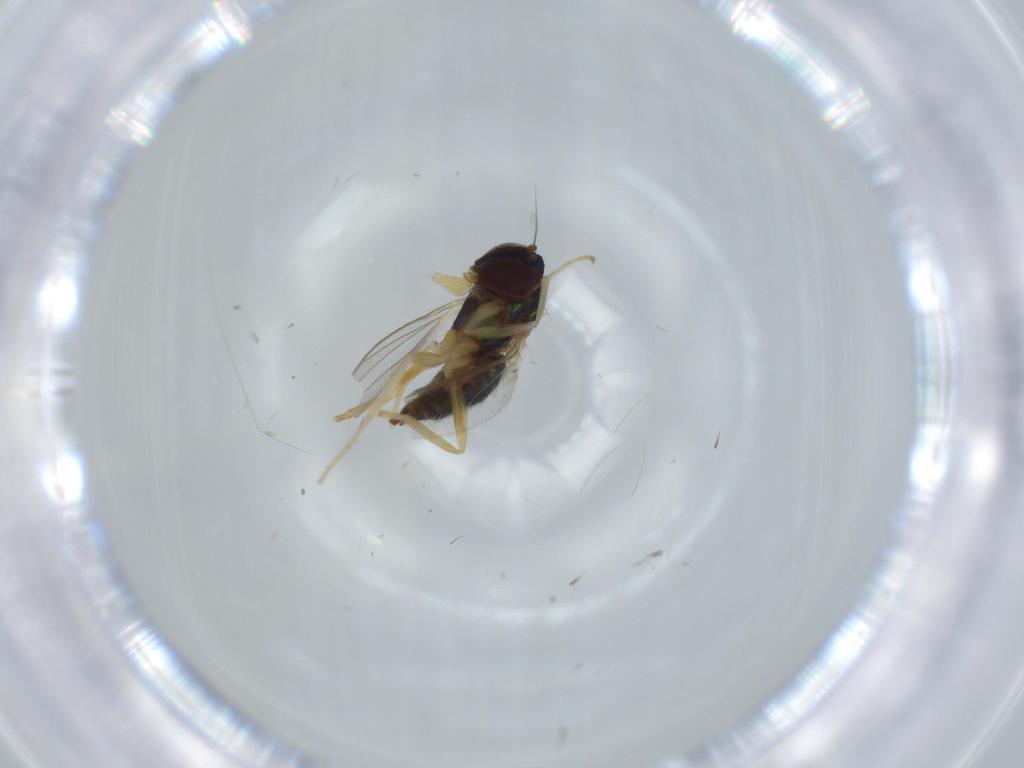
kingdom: Animalia
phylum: Arthropoda
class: Insecta
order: Diptera
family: Dolichopodidae
